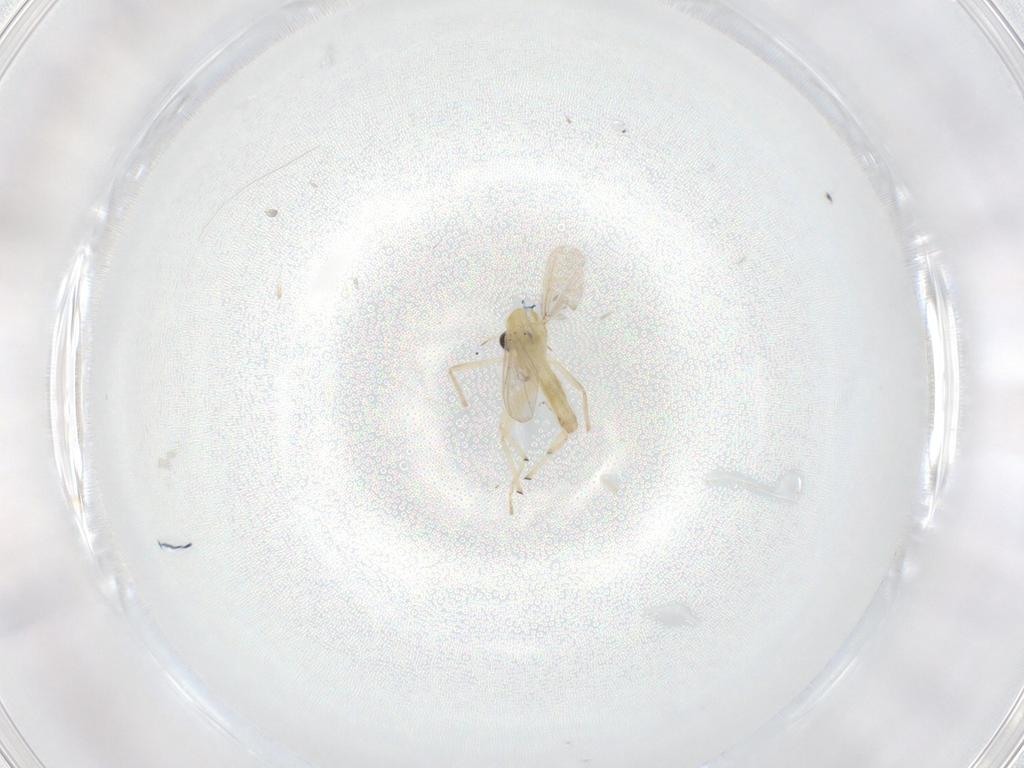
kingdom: Animalia
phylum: Arthropoda
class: Insecta
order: Diptera
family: Chironomidae
